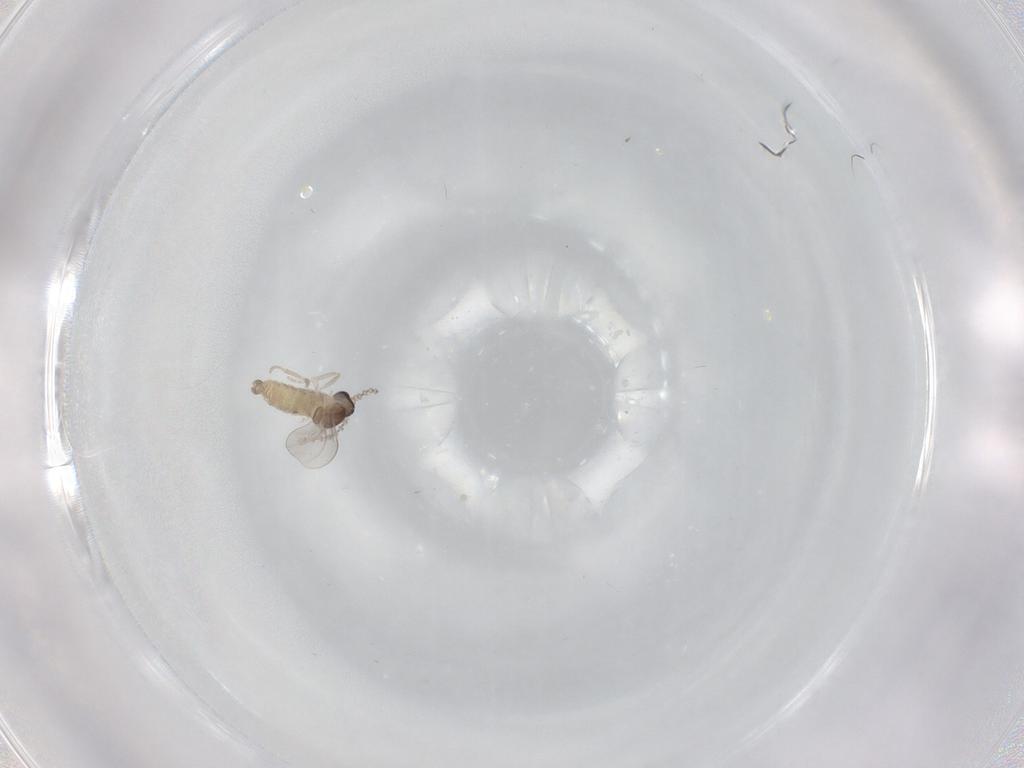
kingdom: Animalia
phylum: Arthropoda
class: Insecta
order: Diptera
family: Cecidomyiidae
